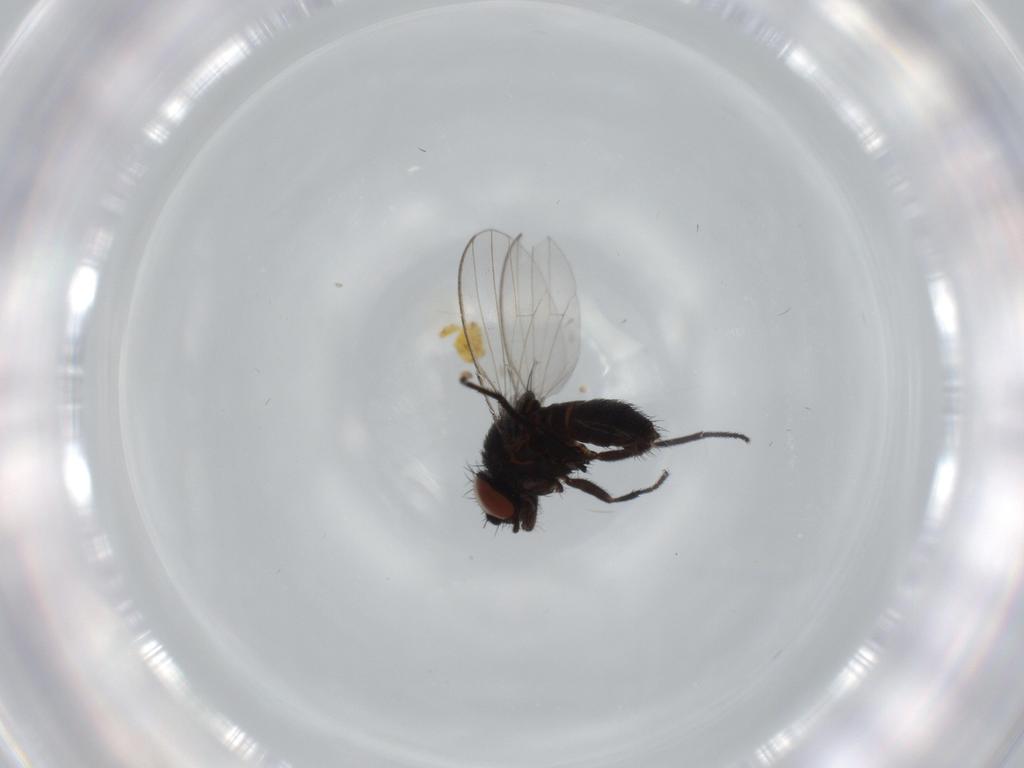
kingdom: Animalia
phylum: Arthropoda
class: Insecta
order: Diptera
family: Milichiidae
